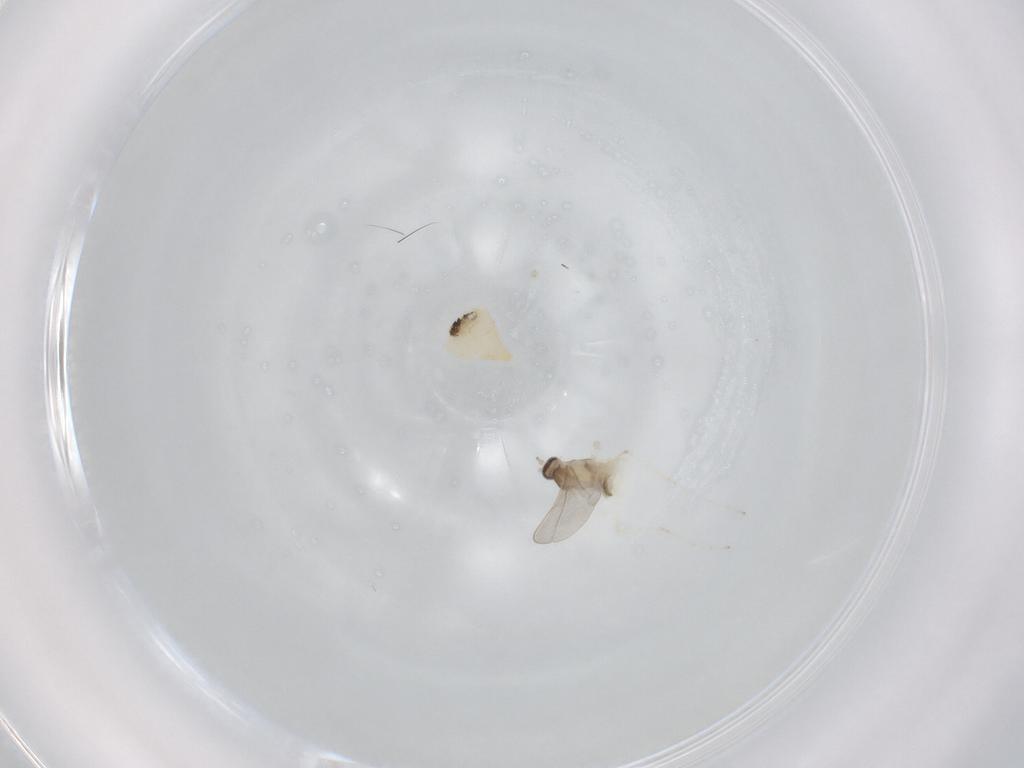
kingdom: Animalia
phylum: Arthropoda
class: Insecta
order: Diptera
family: Cecidomyiidae
